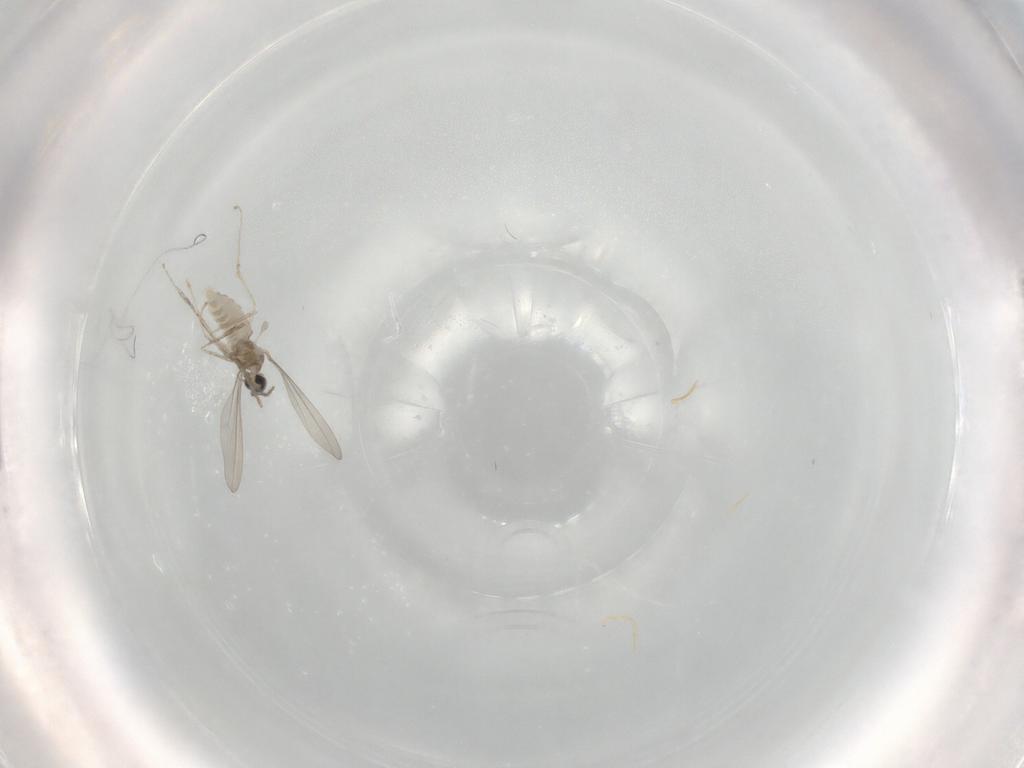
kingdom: Animalia
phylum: Arthropoda
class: Insecta
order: Diptera
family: Cecidomyiidae
